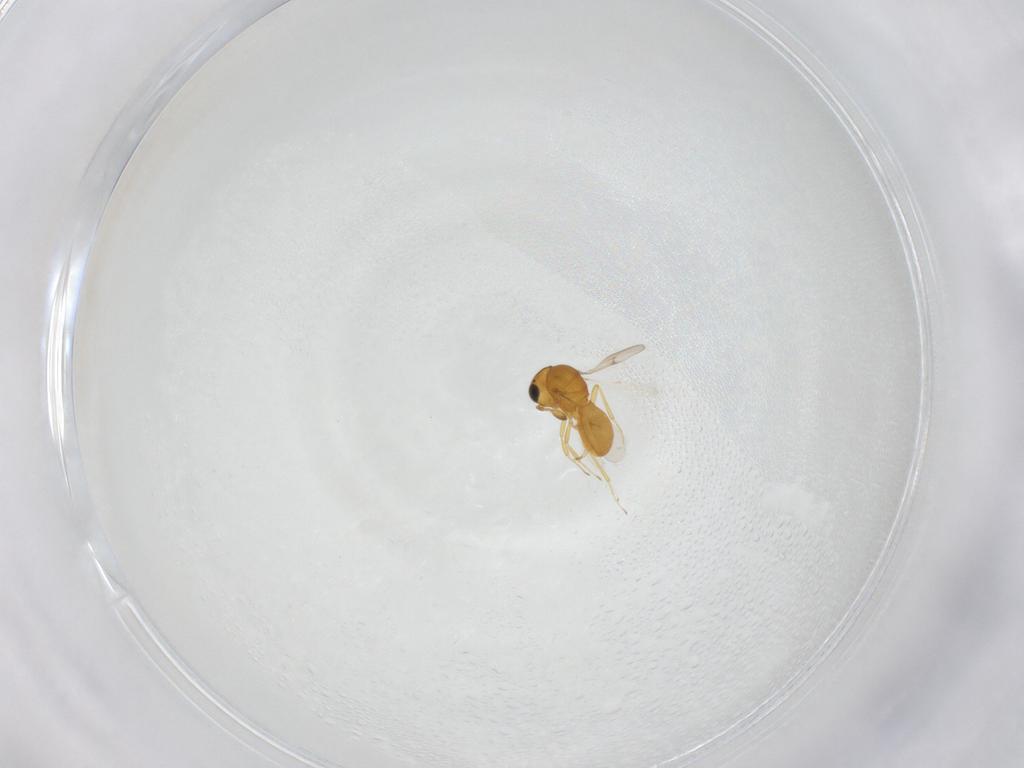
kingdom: Animalia
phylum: Arthropoda
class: Insecta
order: Hymenoptera
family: Scelionidae
